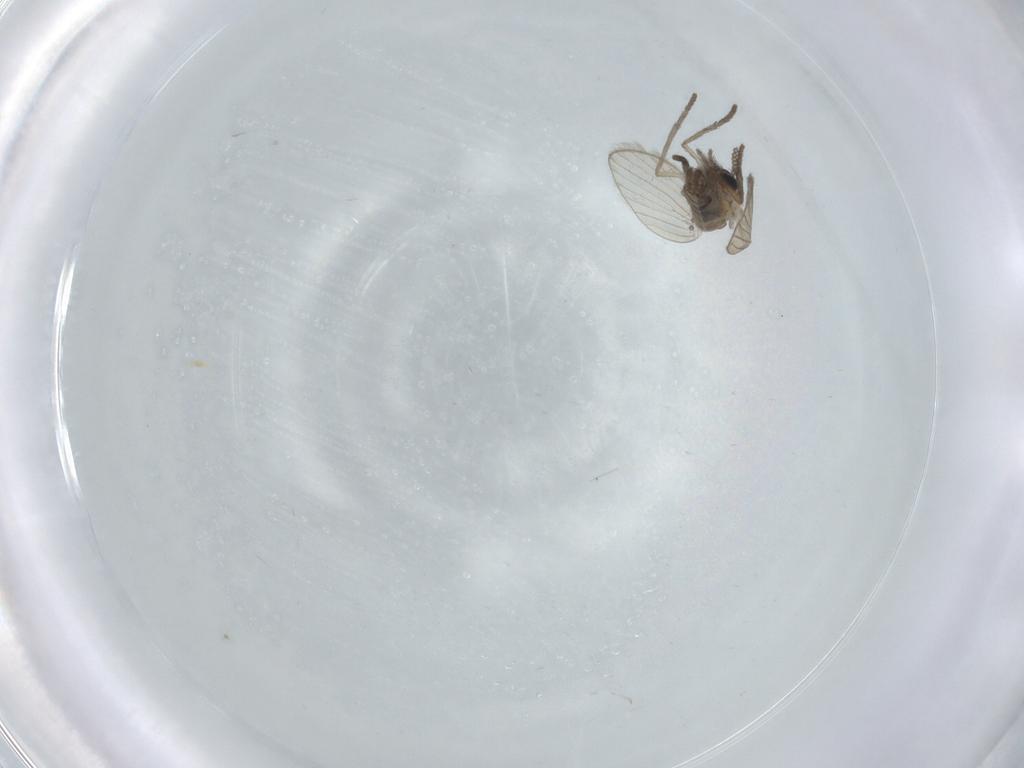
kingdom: Animalia
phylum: Arthropoda
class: Insecta
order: Diptera
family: Psychodidae
